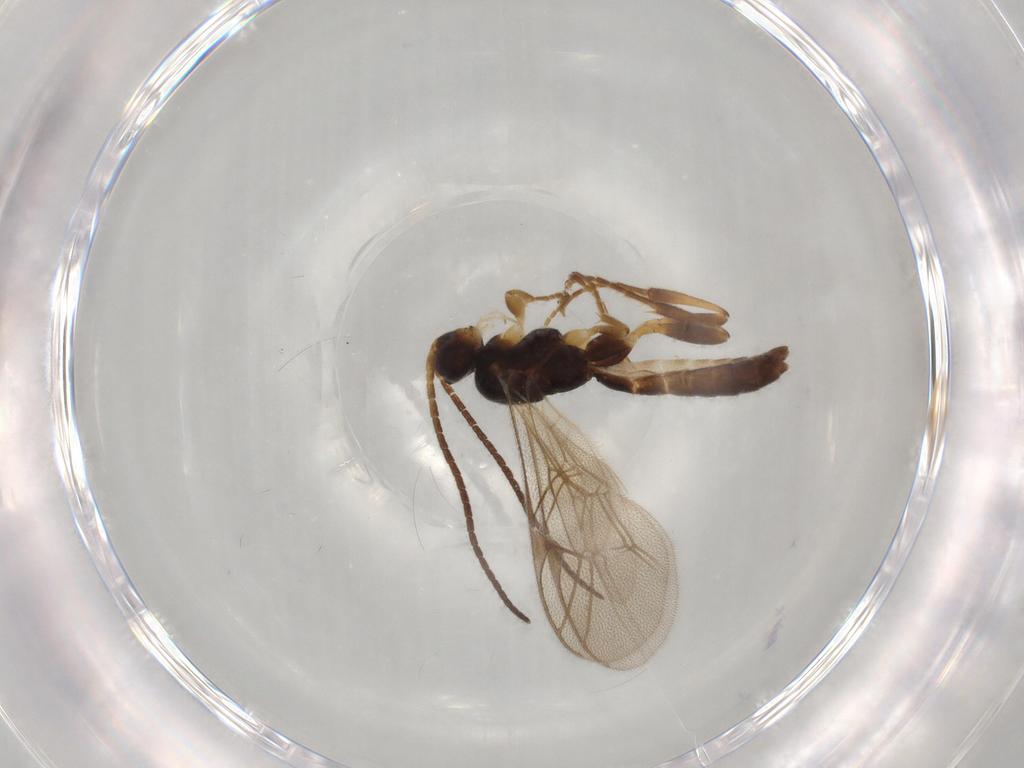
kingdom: Animalia
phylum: Arthropoda
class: Insecta
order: Hymenoptera
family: Ichneumonidae
